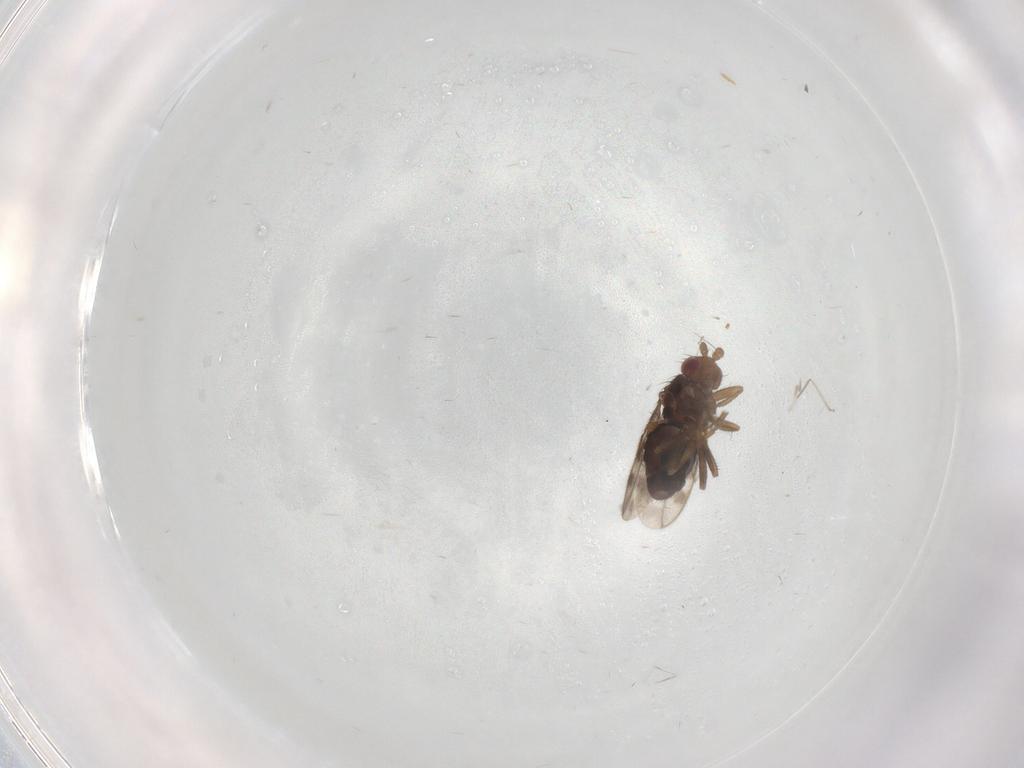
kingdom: Animalia
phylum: Arthropoda
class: Insecta
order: Diptera
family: Sphaeroceridae
